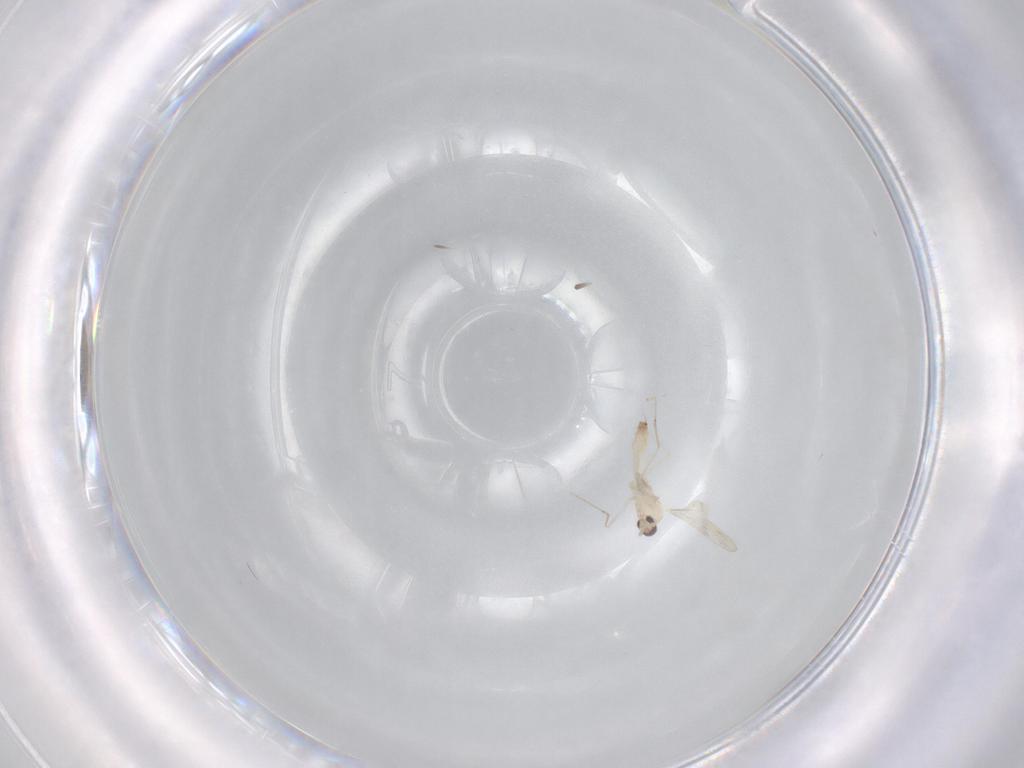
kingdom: Animalia
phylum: Arthropoda
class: Insecta
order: Diptera
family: Cecidomyiidae
